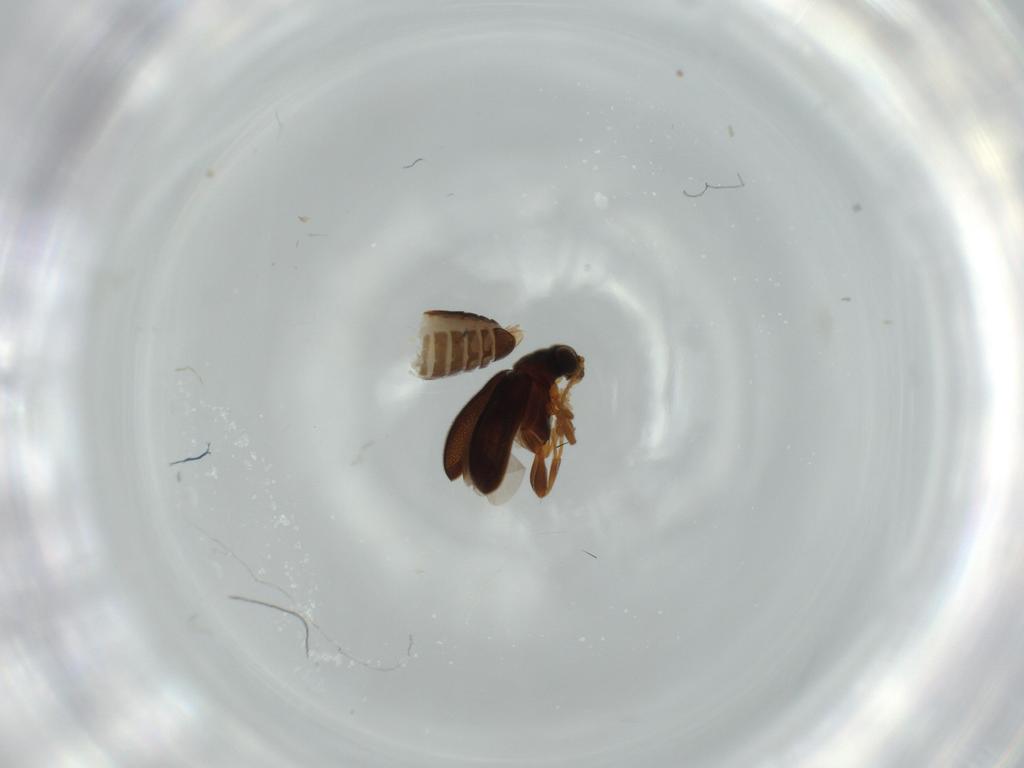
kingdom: Animalia
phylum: Arthropoda
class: Insecta
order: Coleoptera
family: Aderidae
